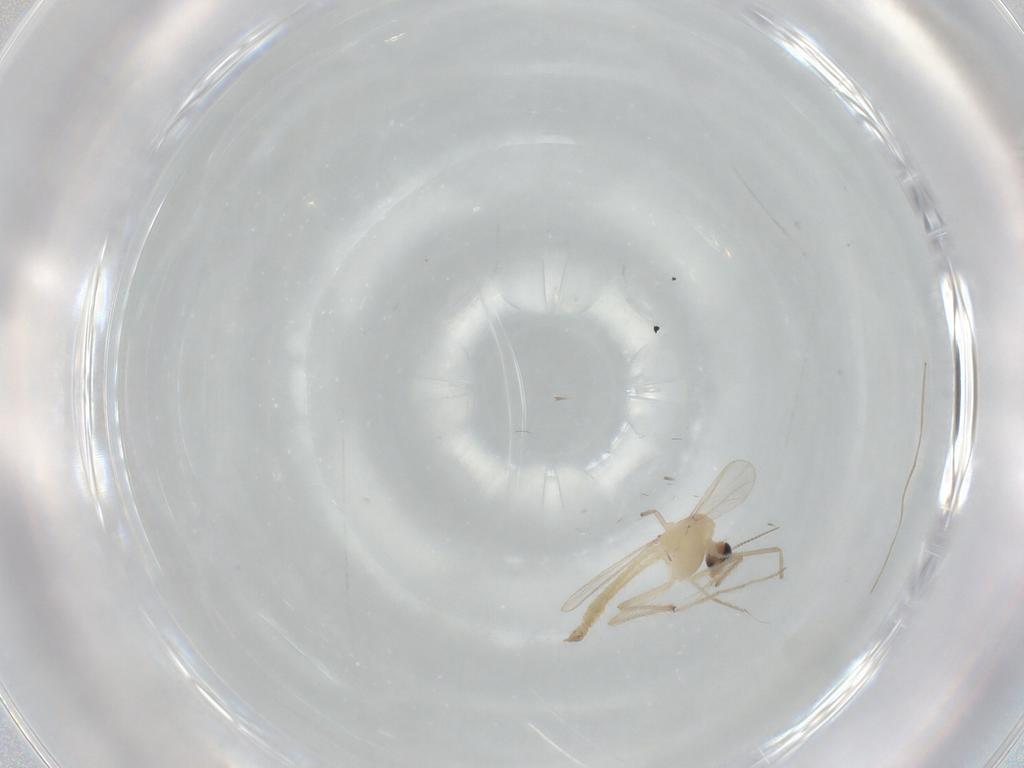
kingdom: Animalia
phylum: Arthropoda
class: Insecta
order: Diptera
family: Chironomidae
